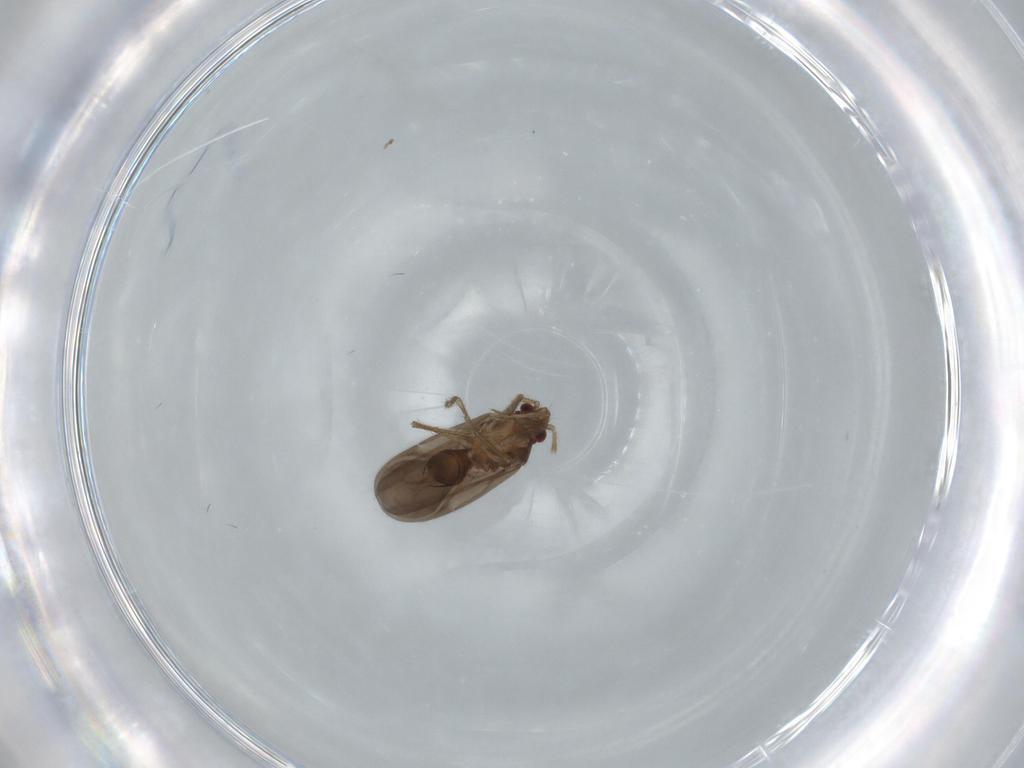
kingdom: Animalia
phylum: Arthropoda
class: Insecta
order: Hemiptera
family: Ceratocombidae
